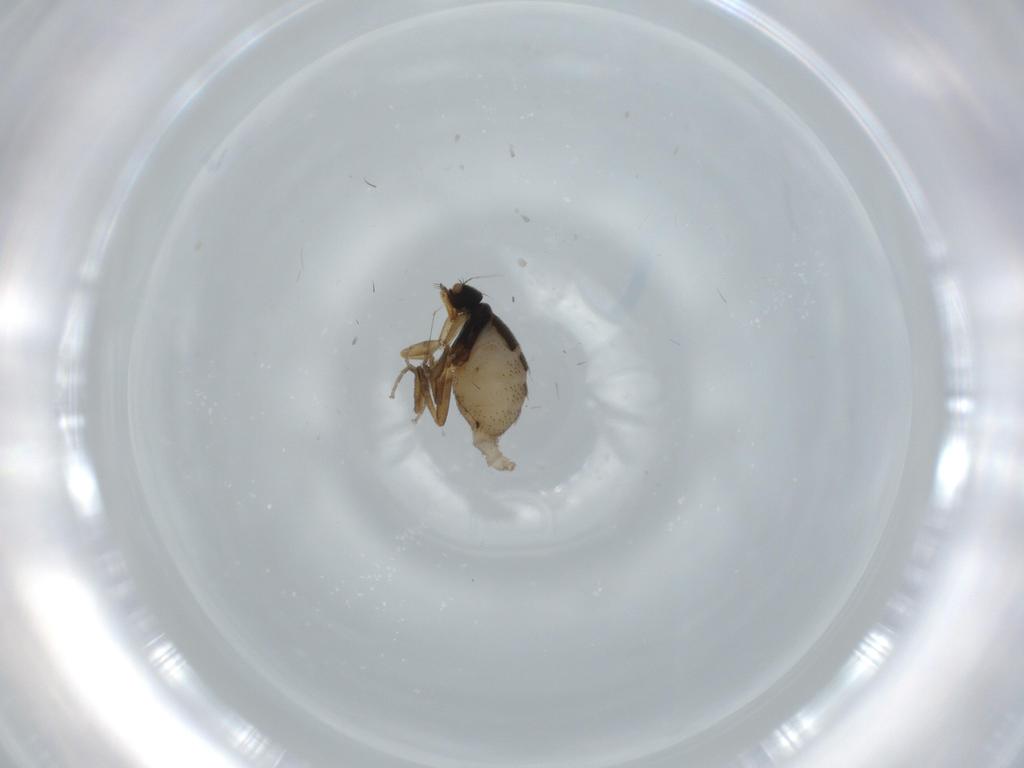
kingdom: Animalia
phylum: Arthropoda
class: Insecta
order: Diptera
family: Phoridae
